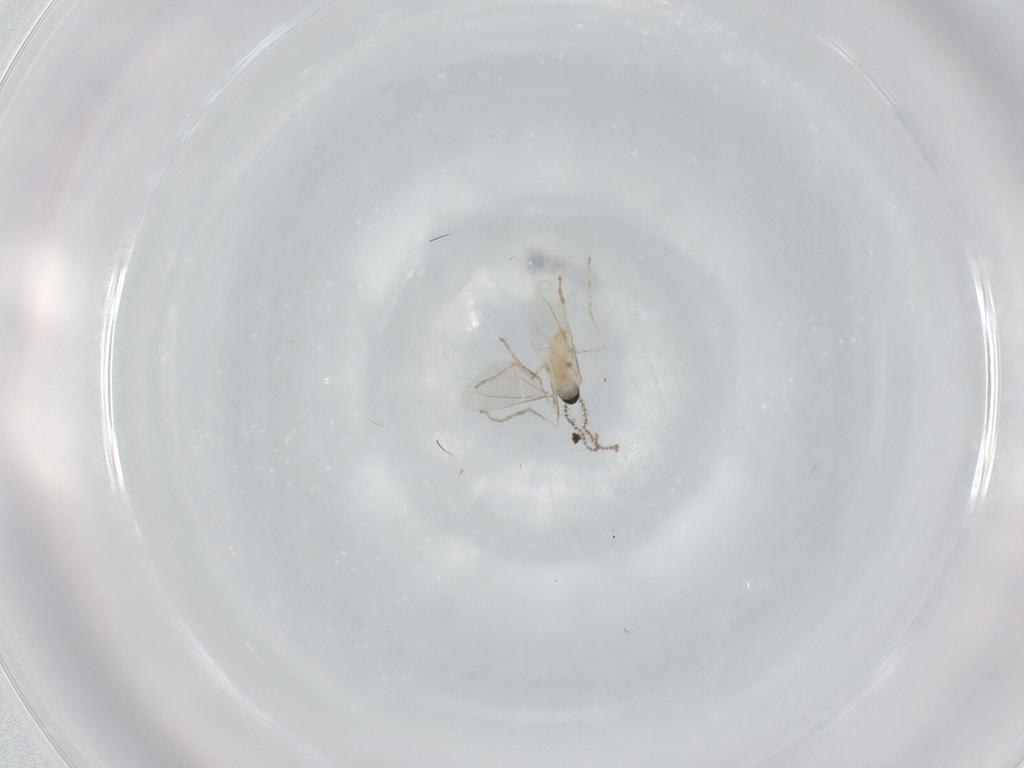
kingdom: Animalia
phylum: Arthropoda
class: Insecta
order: Diptera
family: Cecidomyiidae
